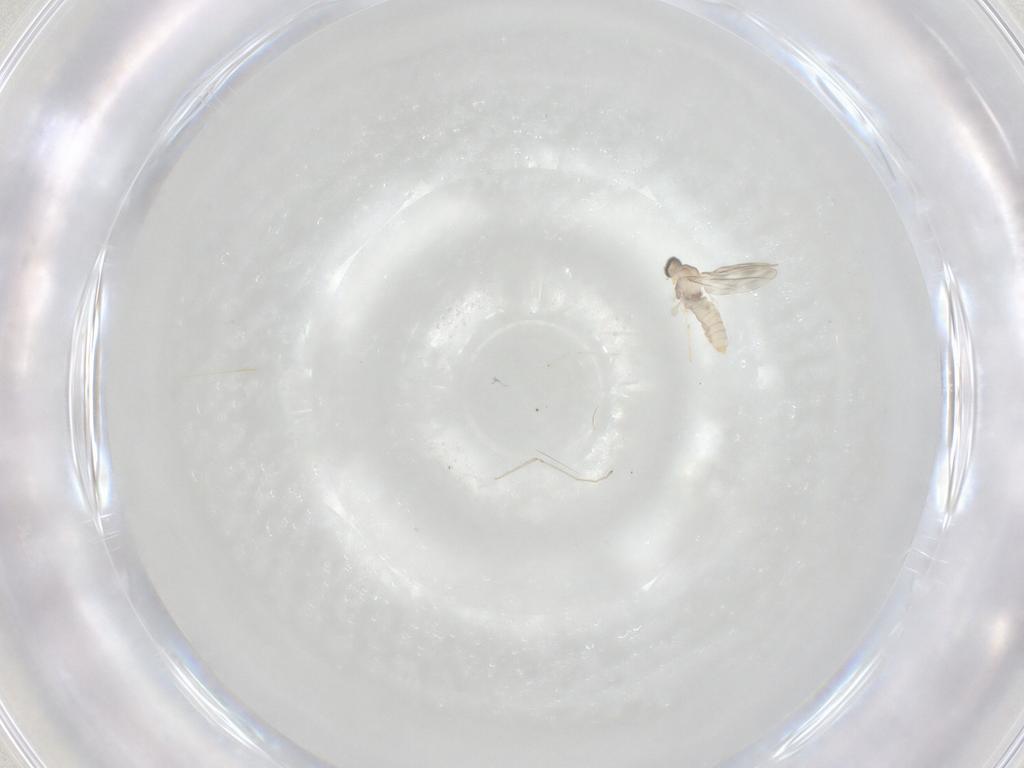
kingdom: Animalia
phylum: Arthropoda
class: Insecta
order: Diptera
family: Cecidomyiidae
